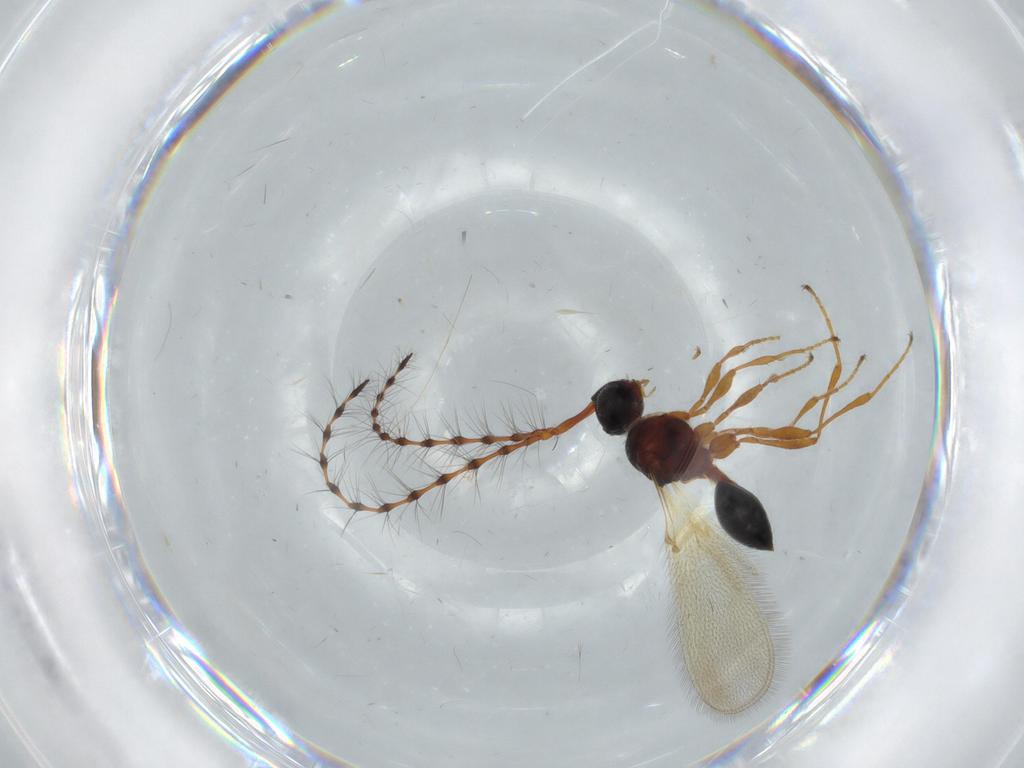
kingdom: Animalia
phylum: Arthropoda
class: Insecta
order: Hymenoptera
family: Diapriidae
